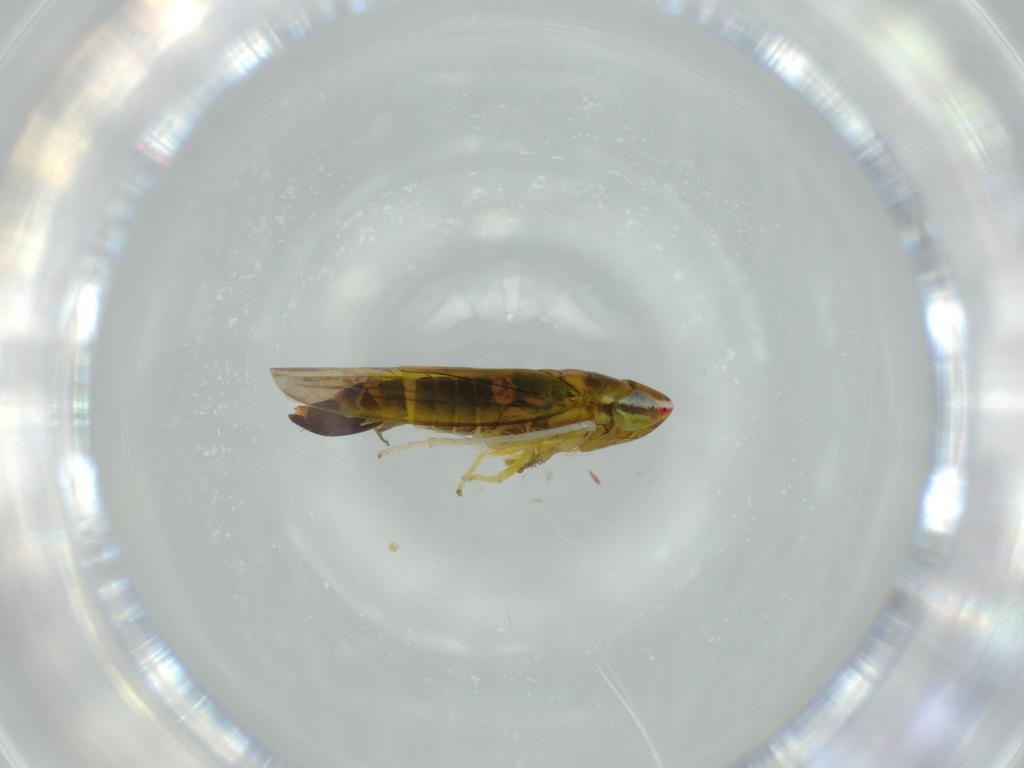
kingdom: Animalia
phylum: Arthropoda
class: Insecta
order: Hemiptera
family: Cicadellidae
